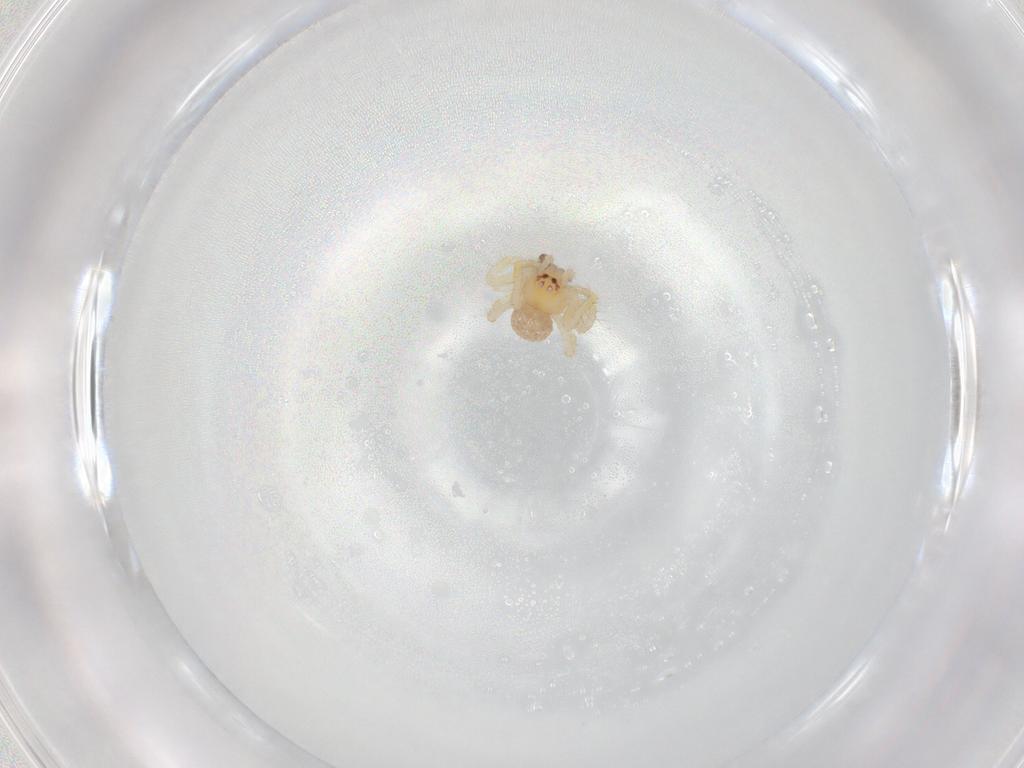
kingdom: Animalia
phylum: Arthropoda
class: Arachnida
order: Araneae
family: Theridiidae
